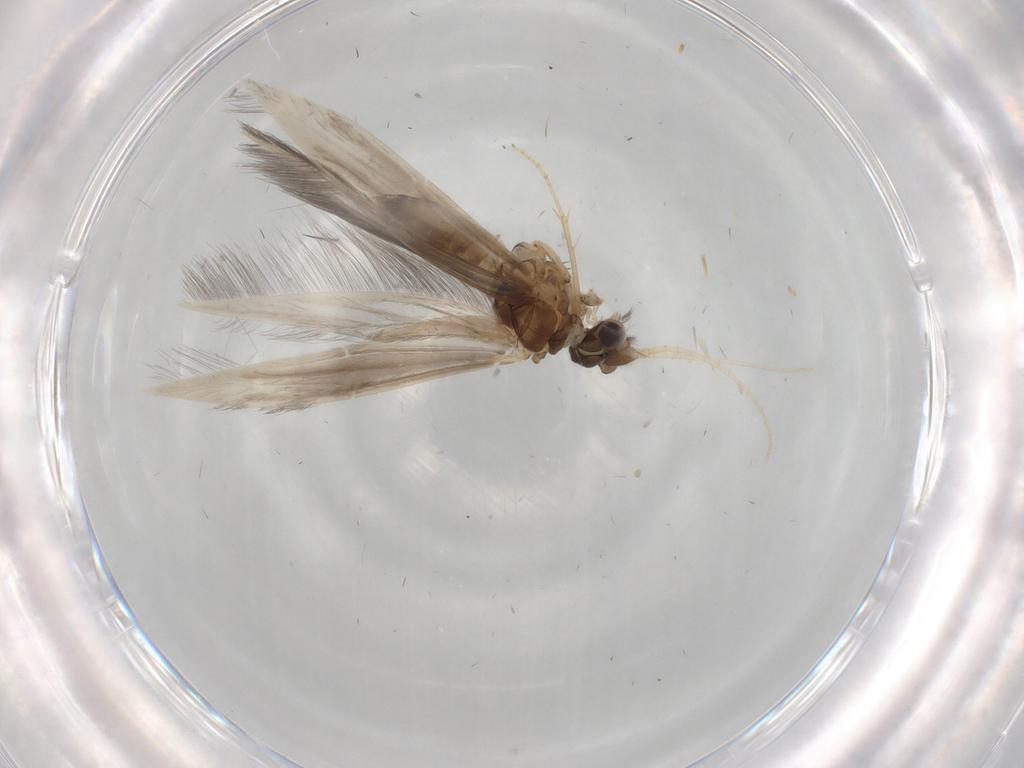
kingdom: Animalia
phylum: Arthropoda
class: Insecta
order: Trichoptera
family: Hydroptilidae
